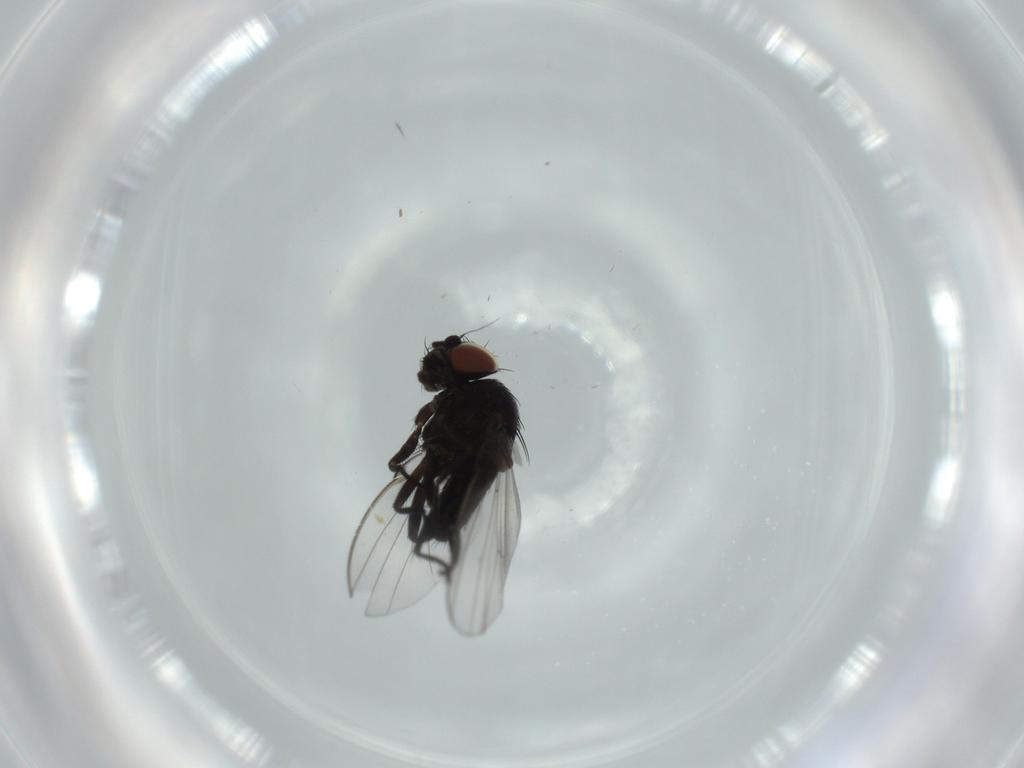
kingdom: Animalia
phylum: Arthropoda
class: Insecta
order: Diptera
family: Milichiidae
